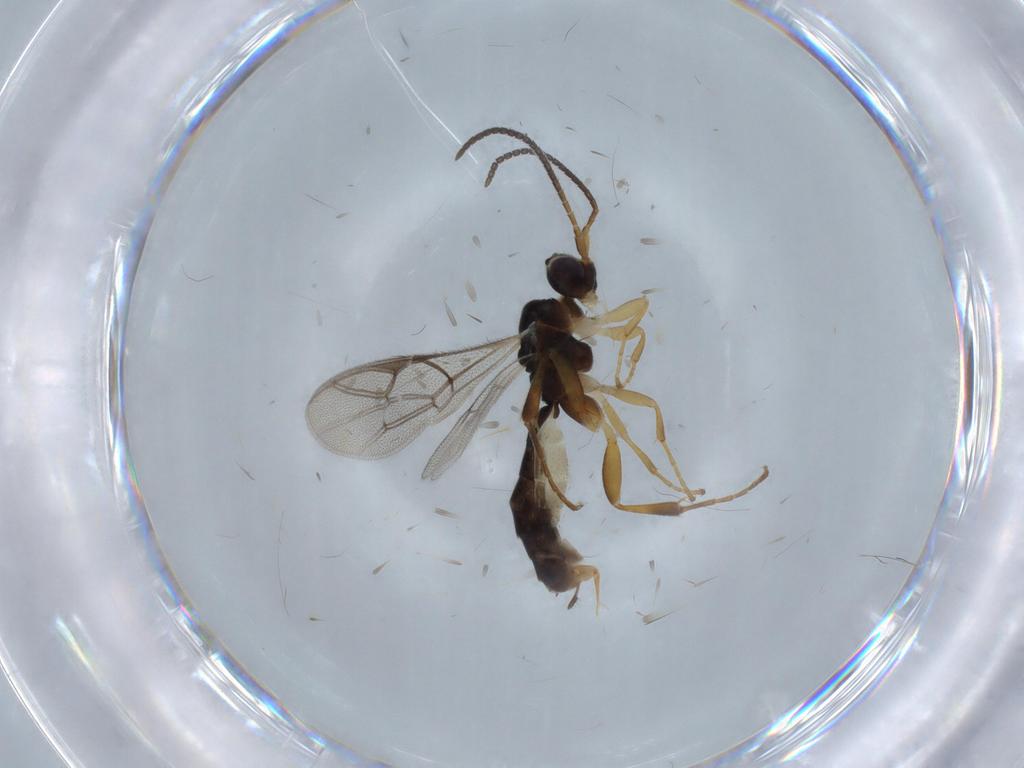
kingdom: Animalia
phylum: Arthropoda
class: Insecta
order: Hymenoptera
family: Ichneumonidae
